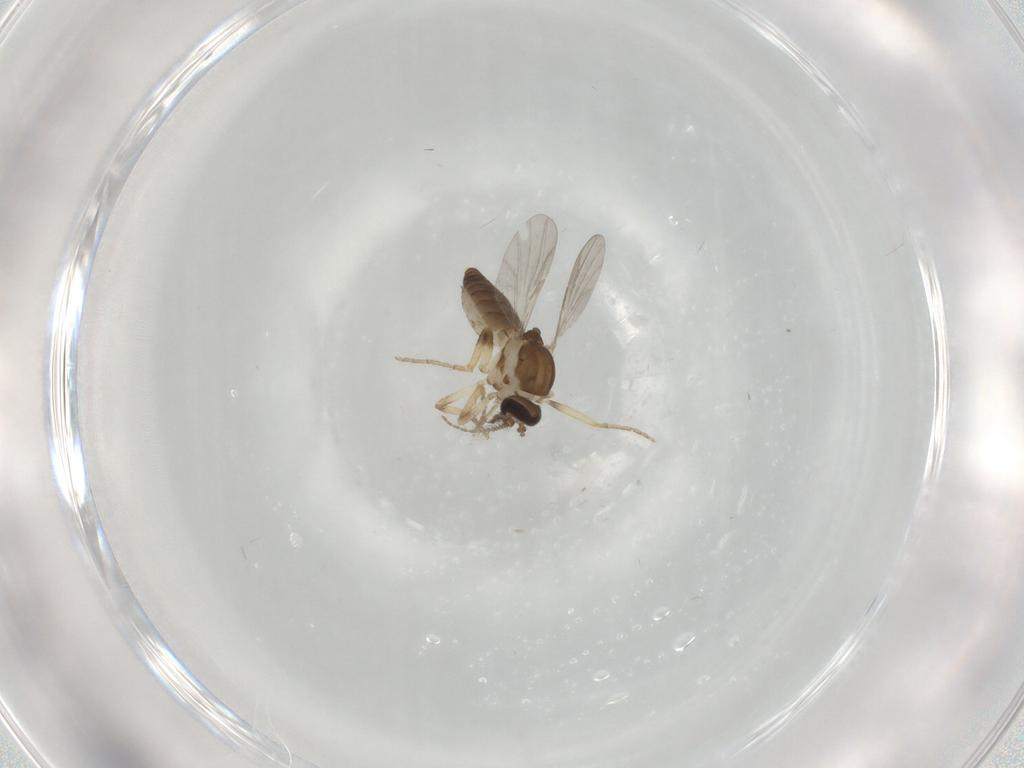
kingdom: Animalia
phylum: Arthropoda
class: Insecta
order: Diptera
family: Ceratopogonidae
